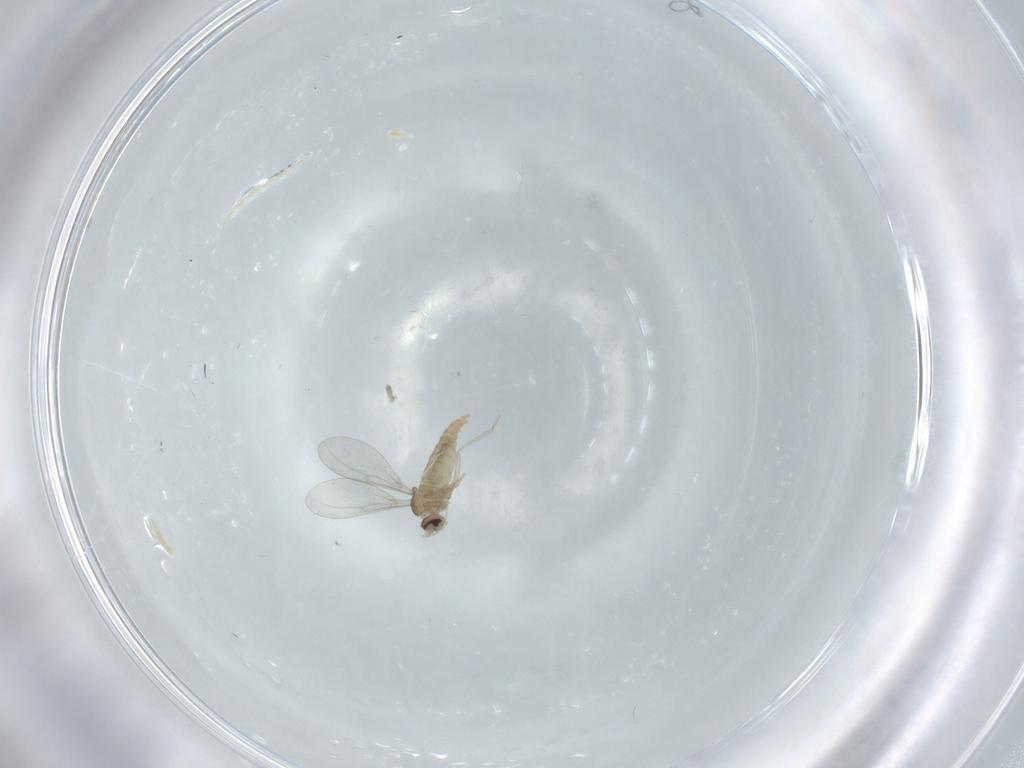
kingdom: Animalia
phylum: Arthropoda
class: Insecta
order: Diptera
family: Cecidomyiidae
